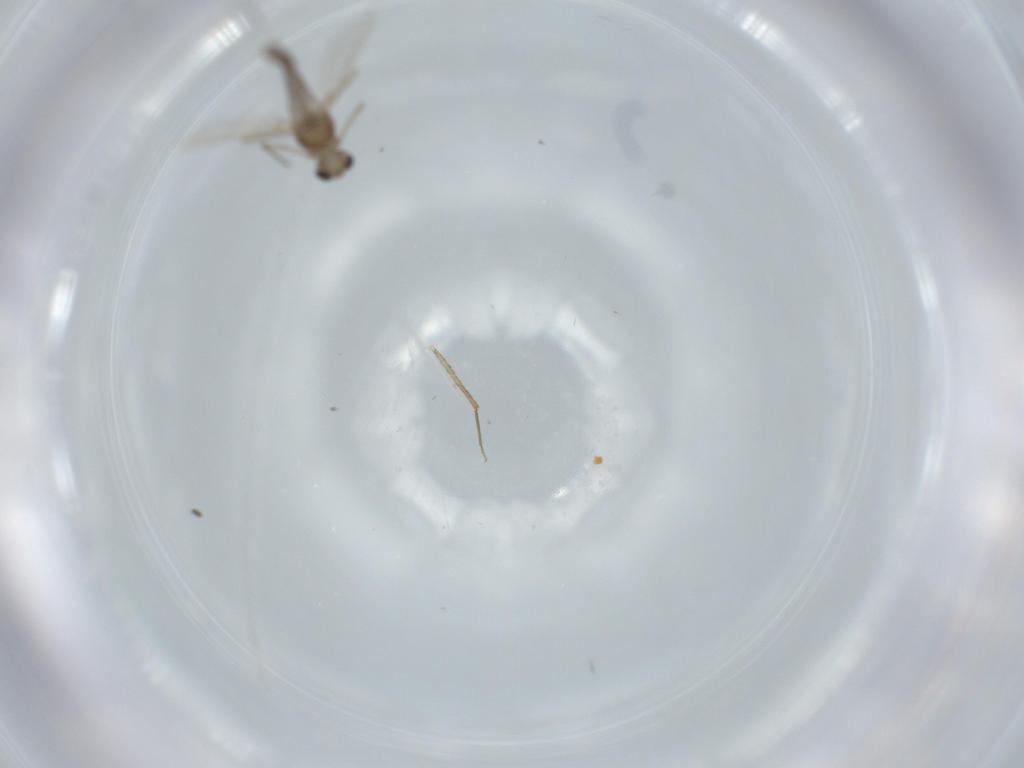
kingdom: Animalia
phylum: Arthropoda
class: Insecta
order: Diptera
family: Chironomidae
